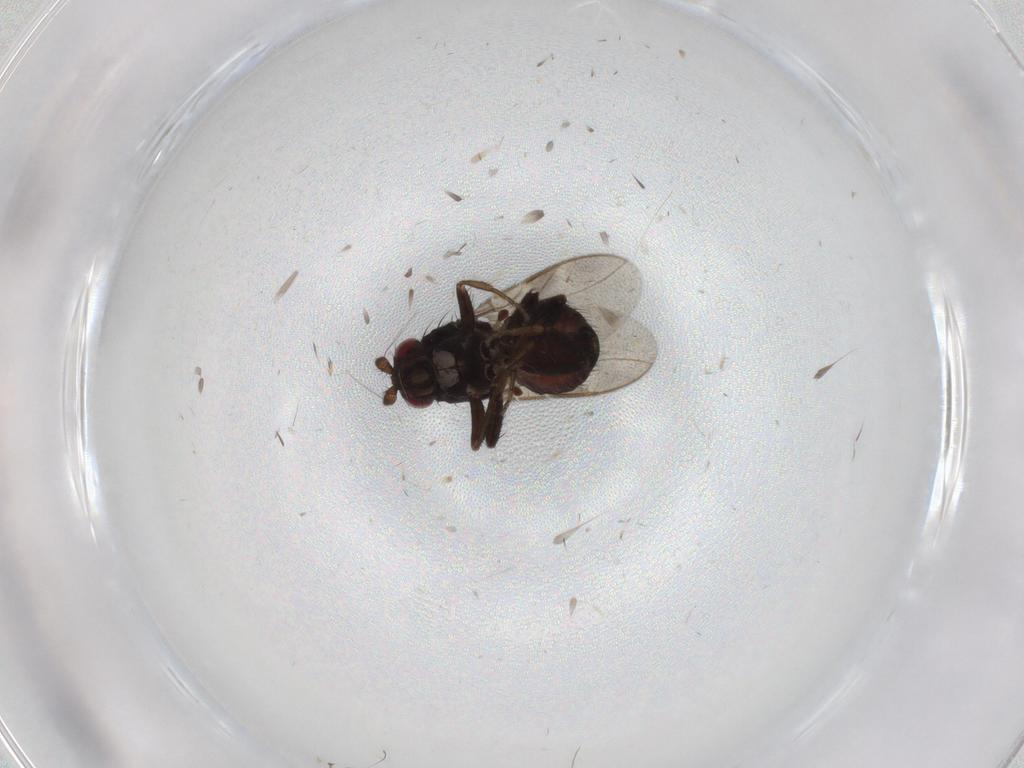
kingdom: Animalia
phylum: Arthropoda
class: Insecta
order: Diptera
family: Sphaeroceridae
